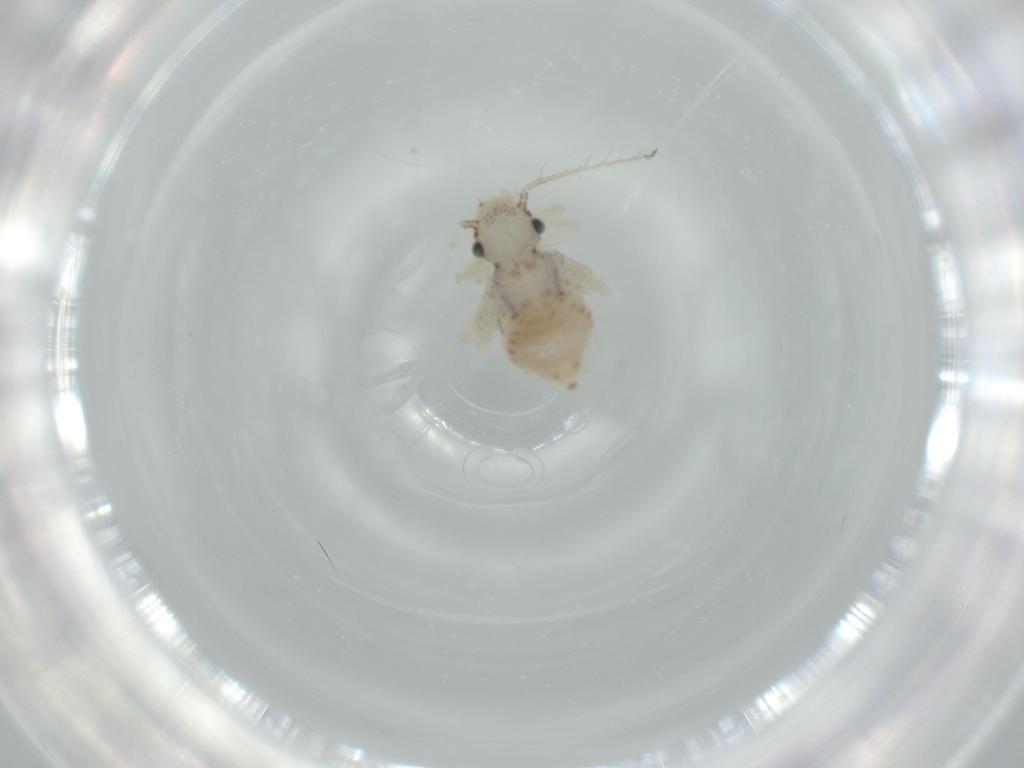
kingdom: Animalia
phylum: Arthropoda
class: Insecta
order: Psocodea
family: Pseudocaeciliidae
